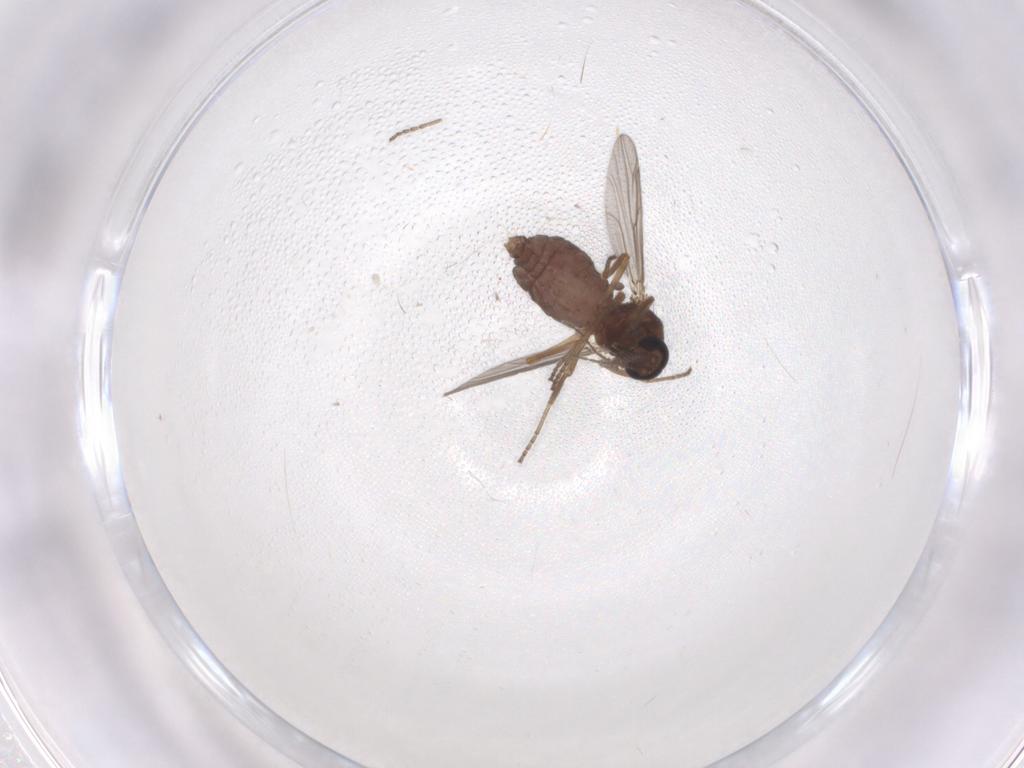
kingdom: Animalia
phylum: Arthropoda
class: Insecta
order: Diptera
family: Ceratopogonidae
